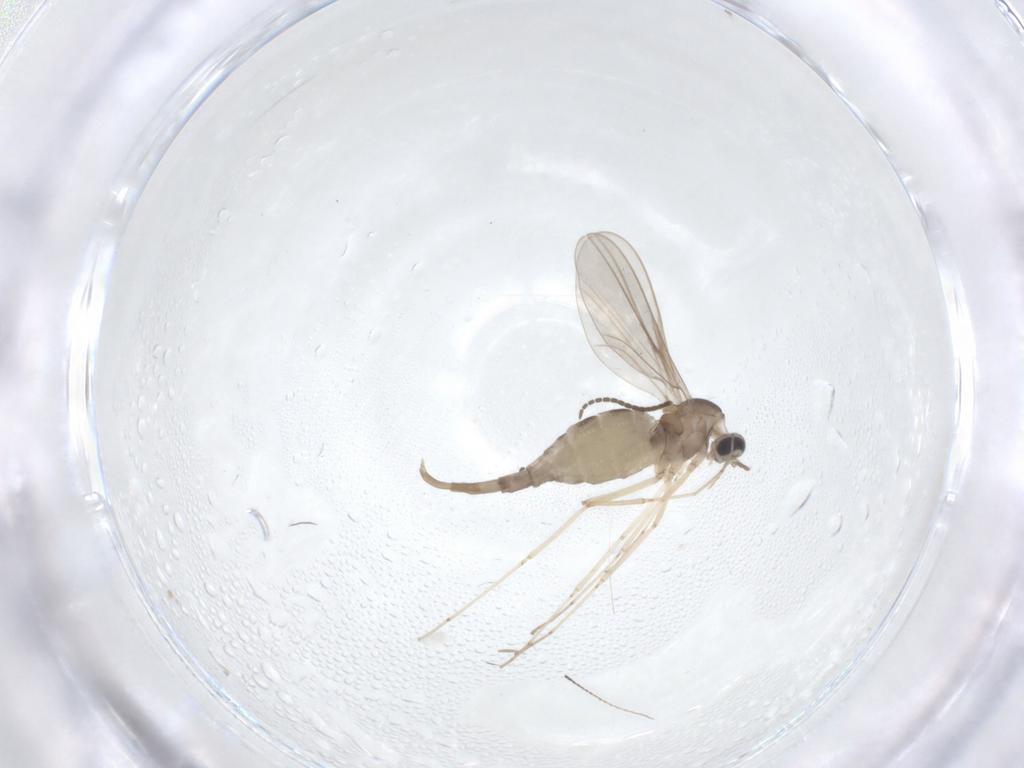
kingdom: Animalia
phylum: Arthropoda
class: Insecta
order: Diptera
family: Cecidomyiidae
